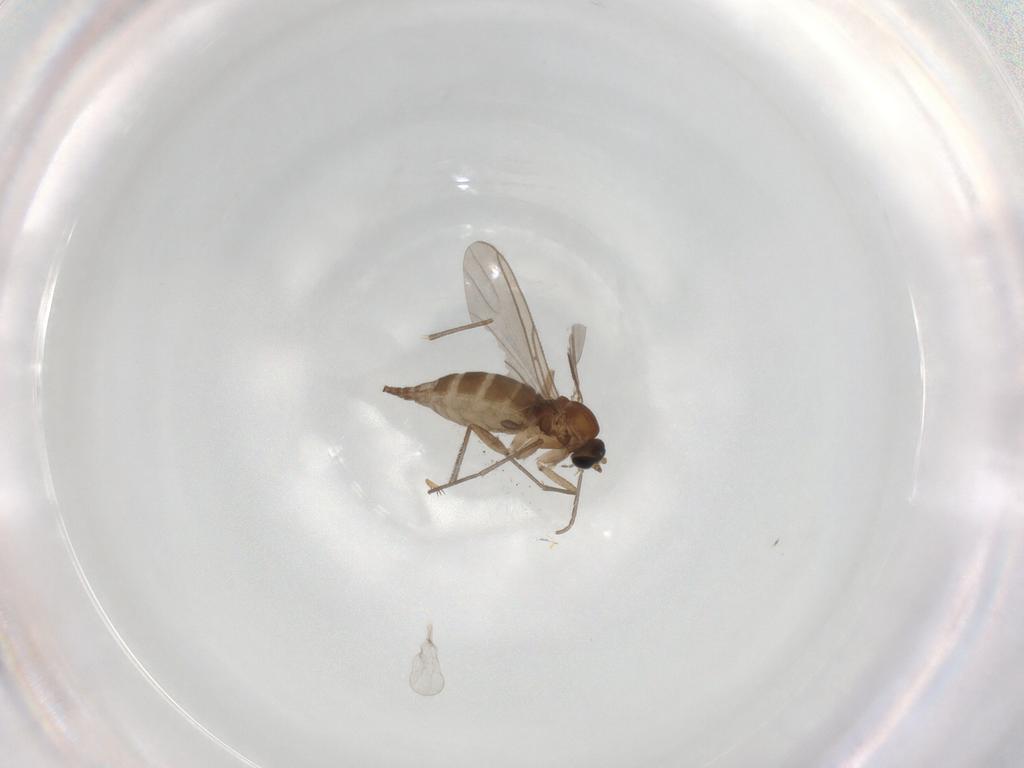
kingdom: Animalia
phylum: Arthropoda
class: Insecta
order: Diptera
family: Sciaridae
